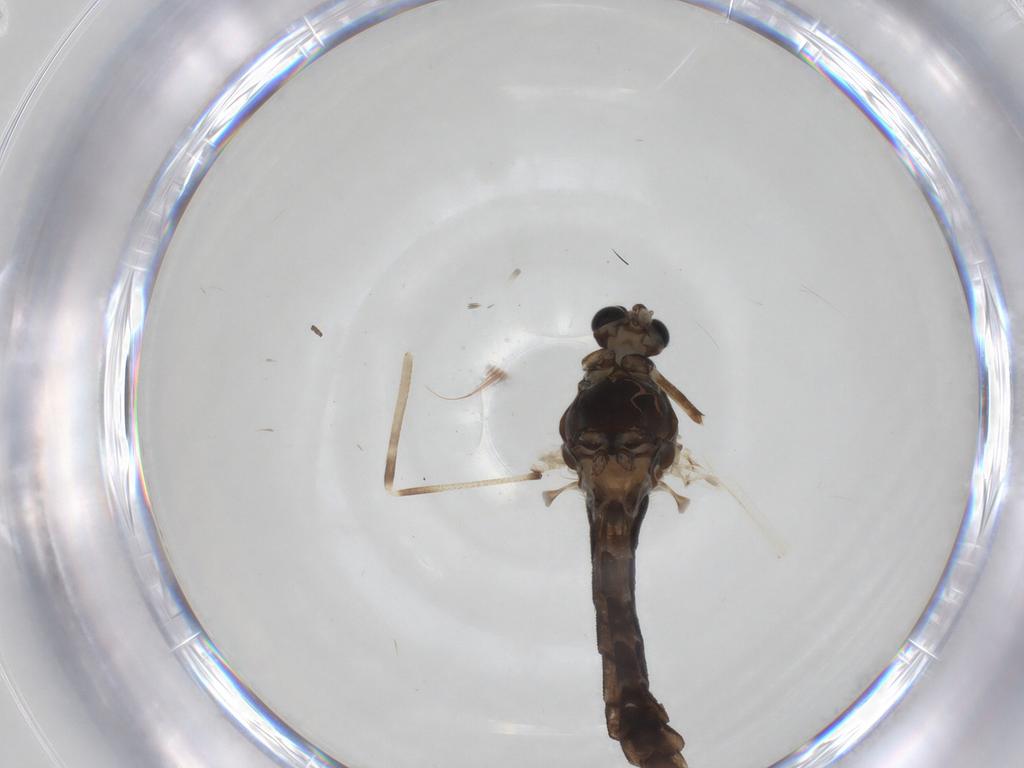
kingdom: Animalia
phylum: Arthropoda
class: Insecta
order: Diptera
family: Chironomidae
